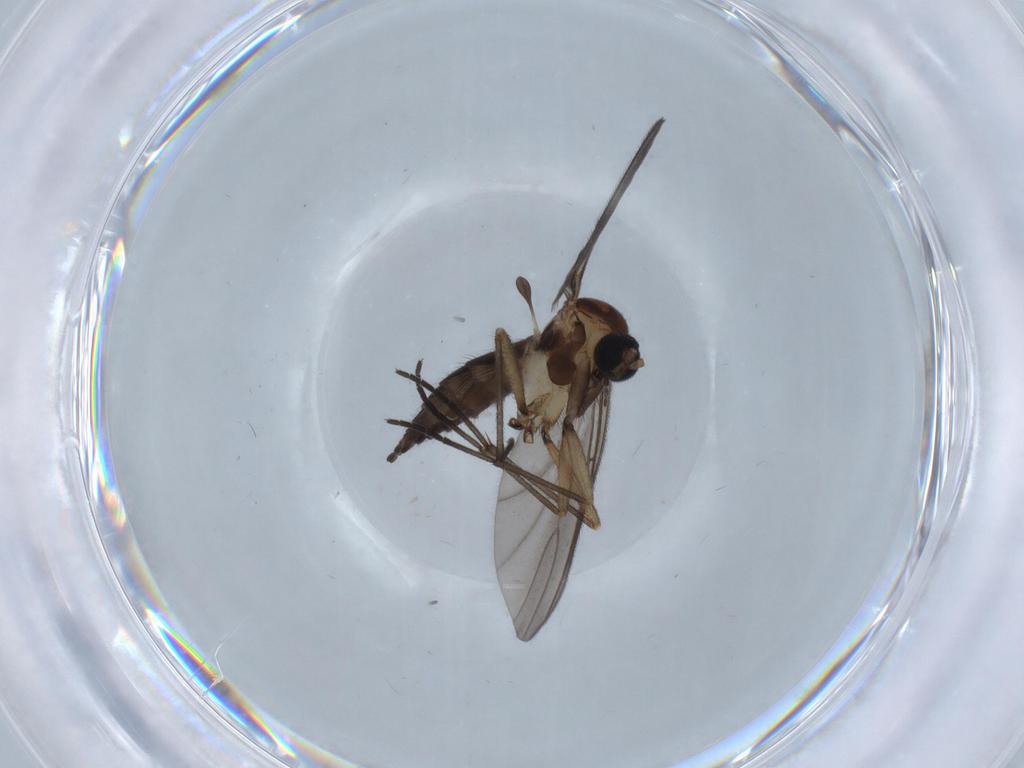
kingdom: Animalia
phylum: Arthropoda
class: Insecta
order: Diptera
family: Sciaridae
